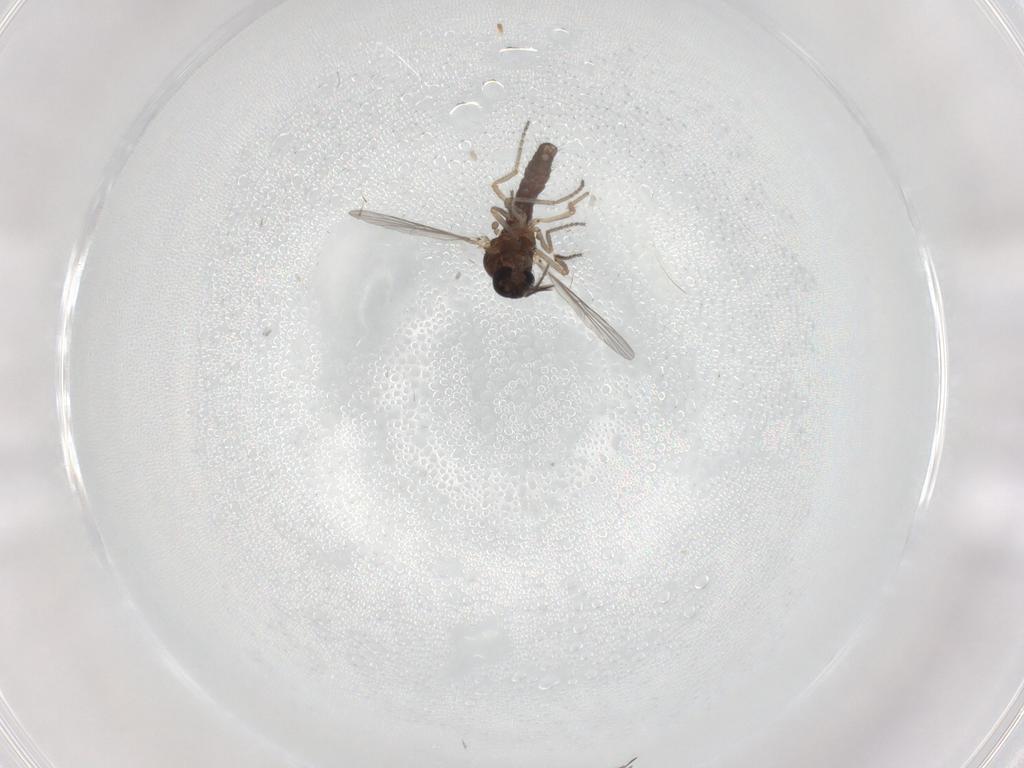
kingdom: Animalia
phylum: Arthropoda
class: Insecta
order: Diptera
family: Ceratopogonidae
